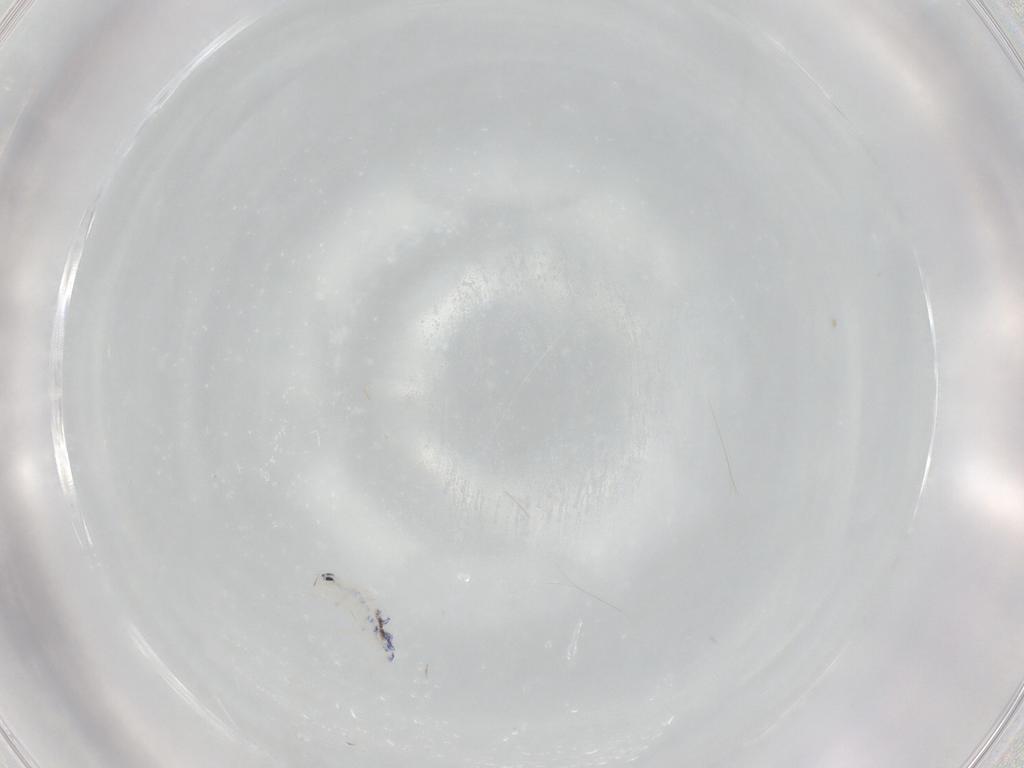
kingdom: Animalia
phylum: Arthropoda
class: Collembola
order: Entomobryomorpha
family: Entomobryidae
